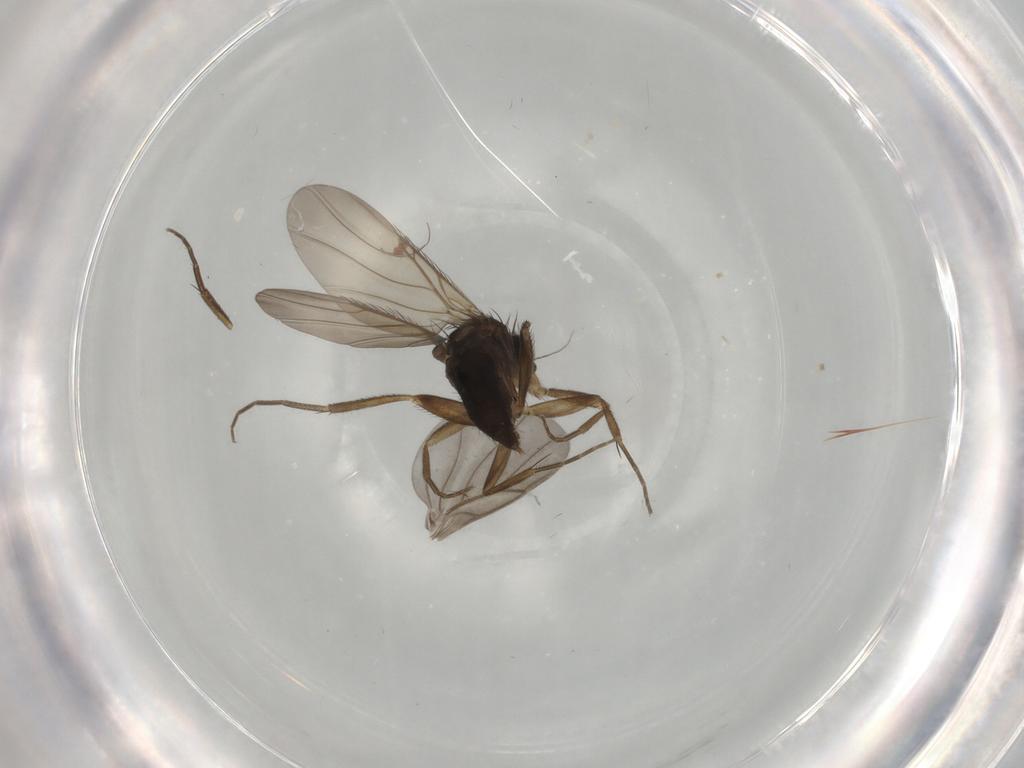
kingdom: Animalia
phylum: Arthropoda
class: Insecta
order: Diptera
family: Phoridae
